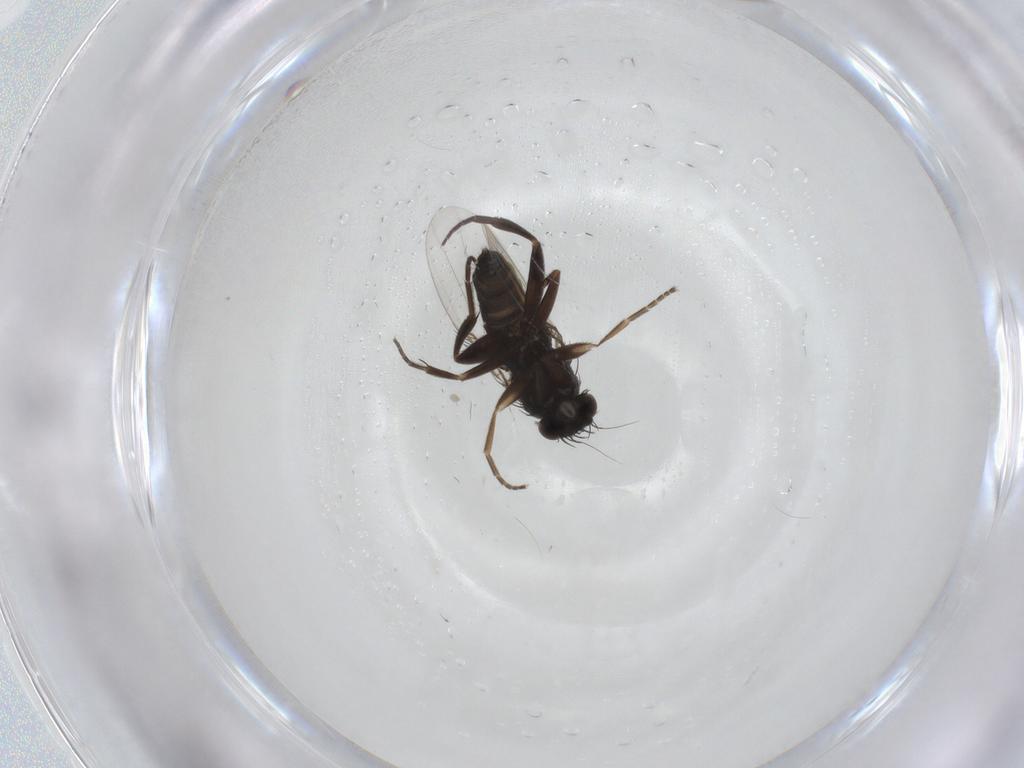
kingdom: Animalia
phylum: Arthropoda
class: Insecta
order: Diptera
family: Phoridae
